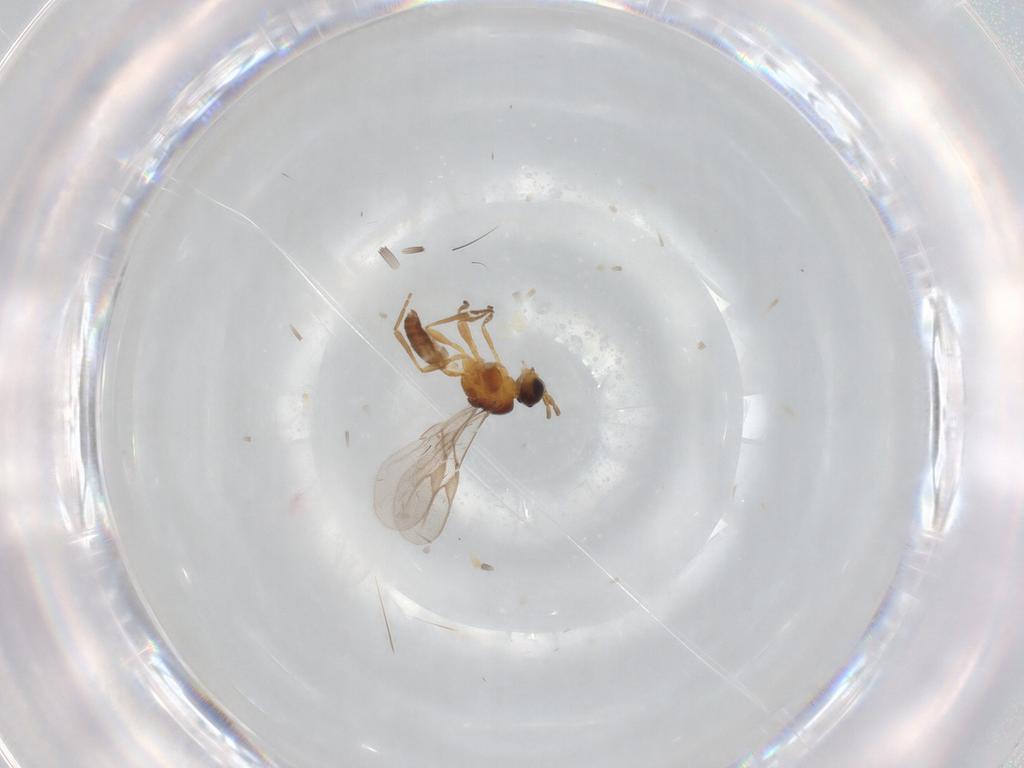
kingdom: Animalia
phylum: Arthropoda
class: Insecta
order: Hymenoptera
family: Braconidae
